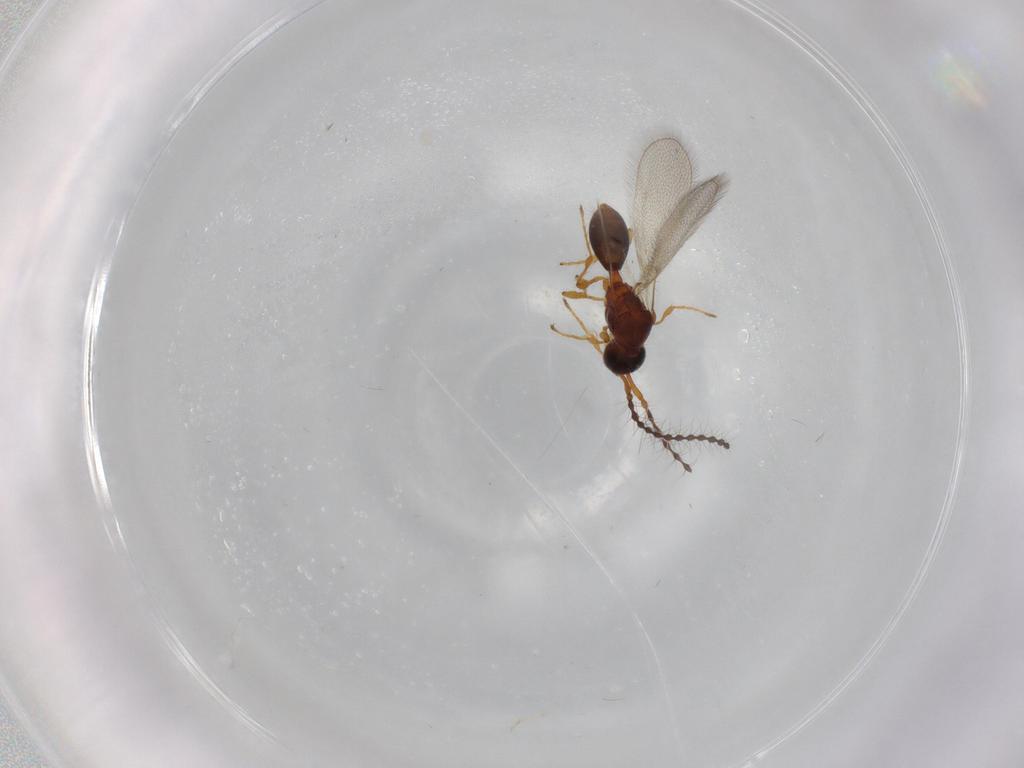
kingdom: Animalia
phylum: Arthropoda
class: Insecta
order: Hymenoptera
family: Diapriidae
